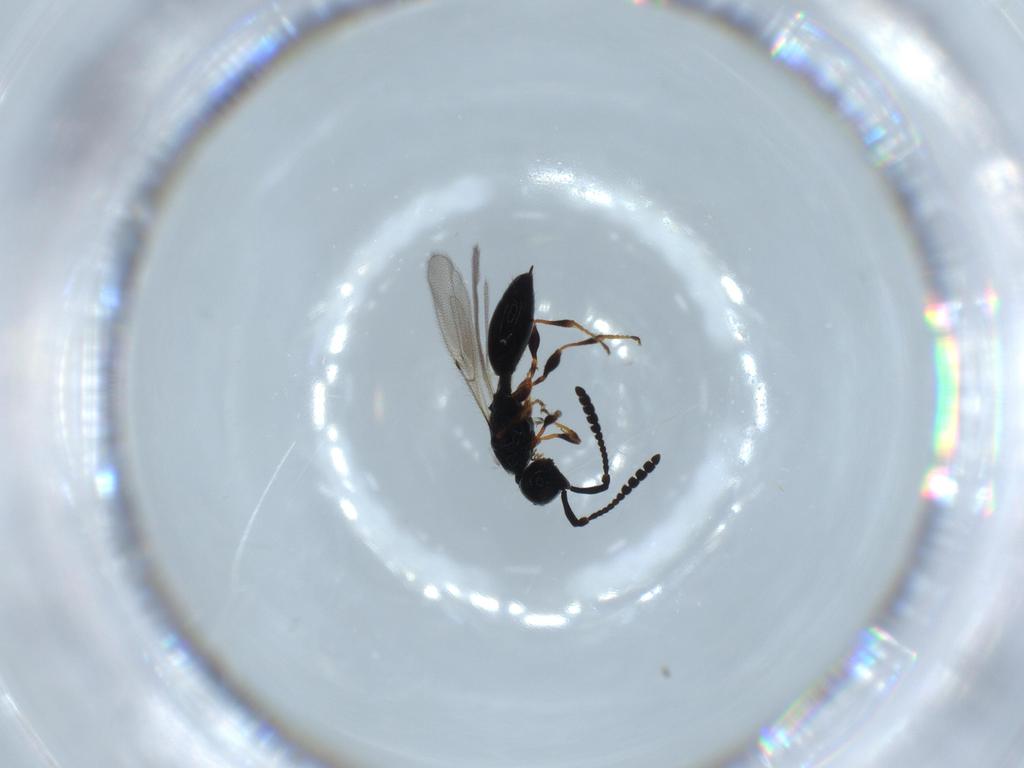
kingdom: Animalia
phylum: Arthropoda
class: Insecta
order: Hymenoptera
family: Diapriidae
